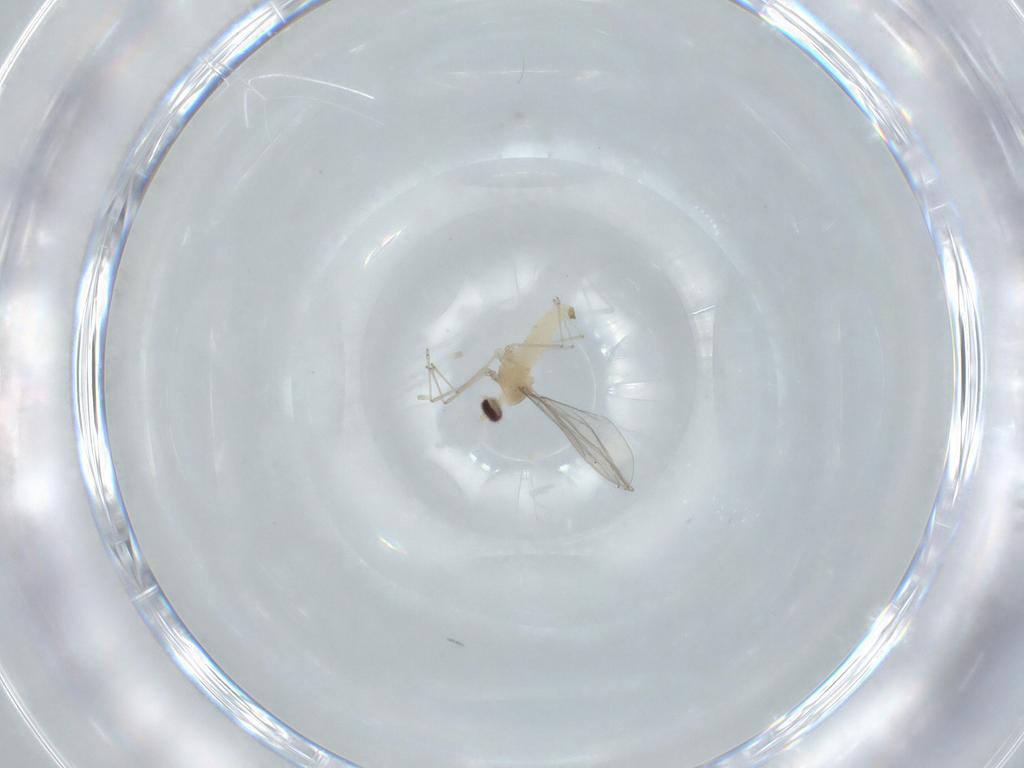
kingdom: Animalia
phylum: Arthropoda
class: Insecta
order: Diptera
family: Cecidomyiidae
